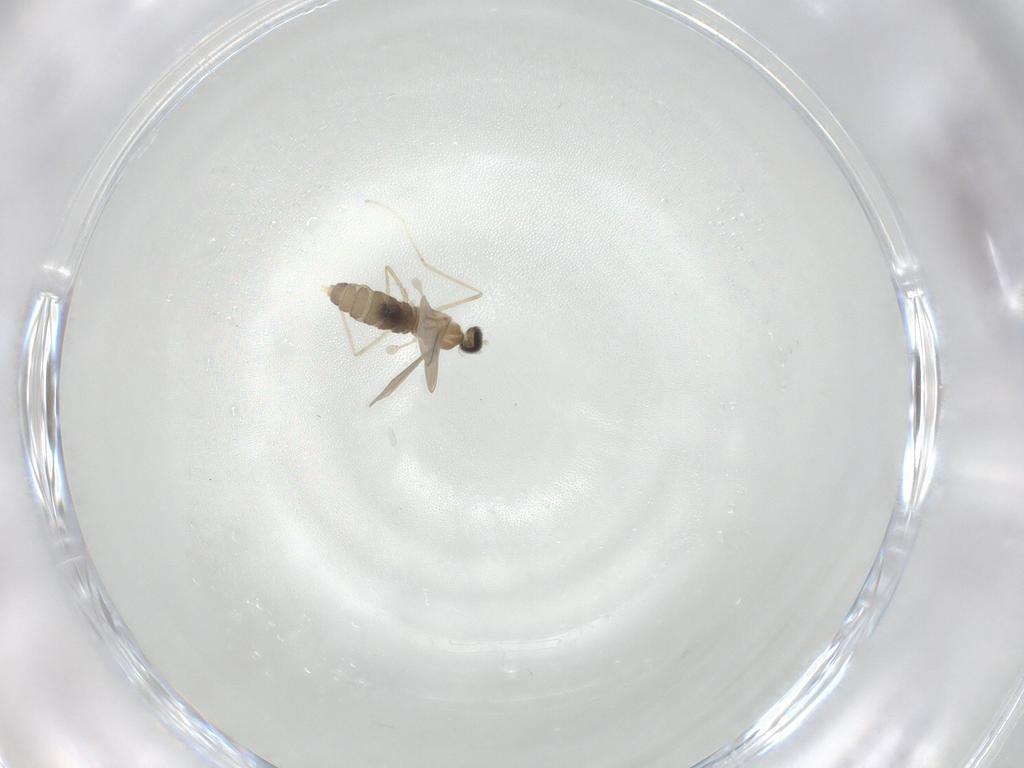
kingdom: Animalia
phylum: Arthropoda
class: Insecta
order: Diptera
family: Cecidomyiidae
